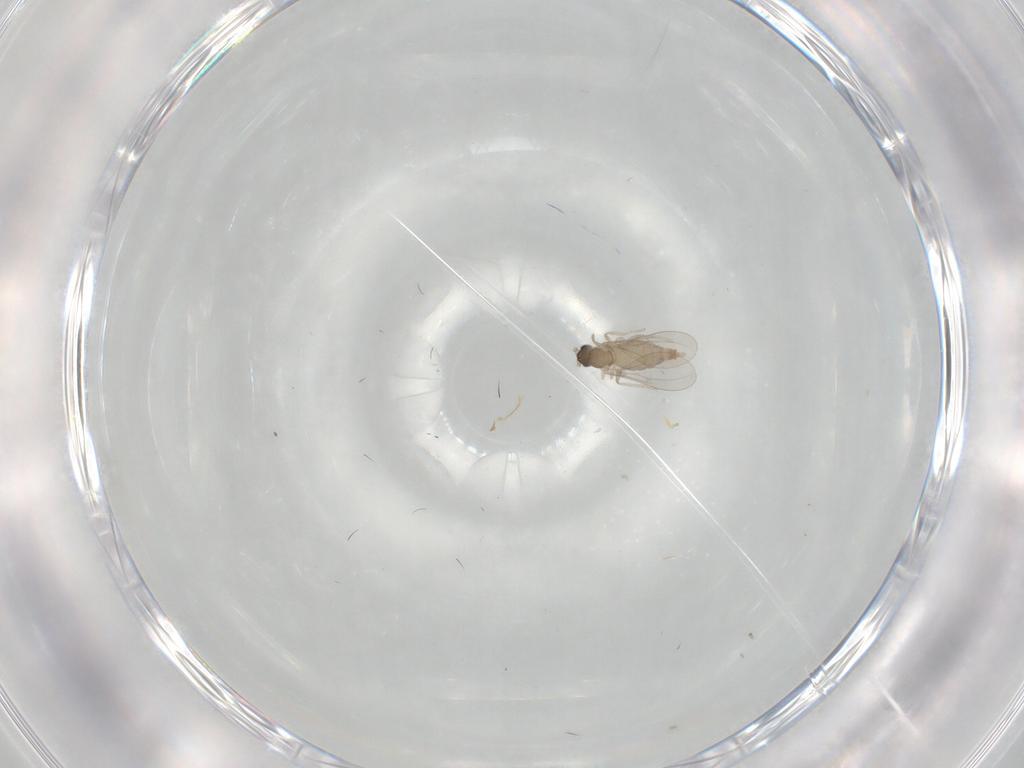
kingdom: Animalia
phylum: Arthropoda
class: Insecta
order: Diptera
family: Cecidomyiidae
